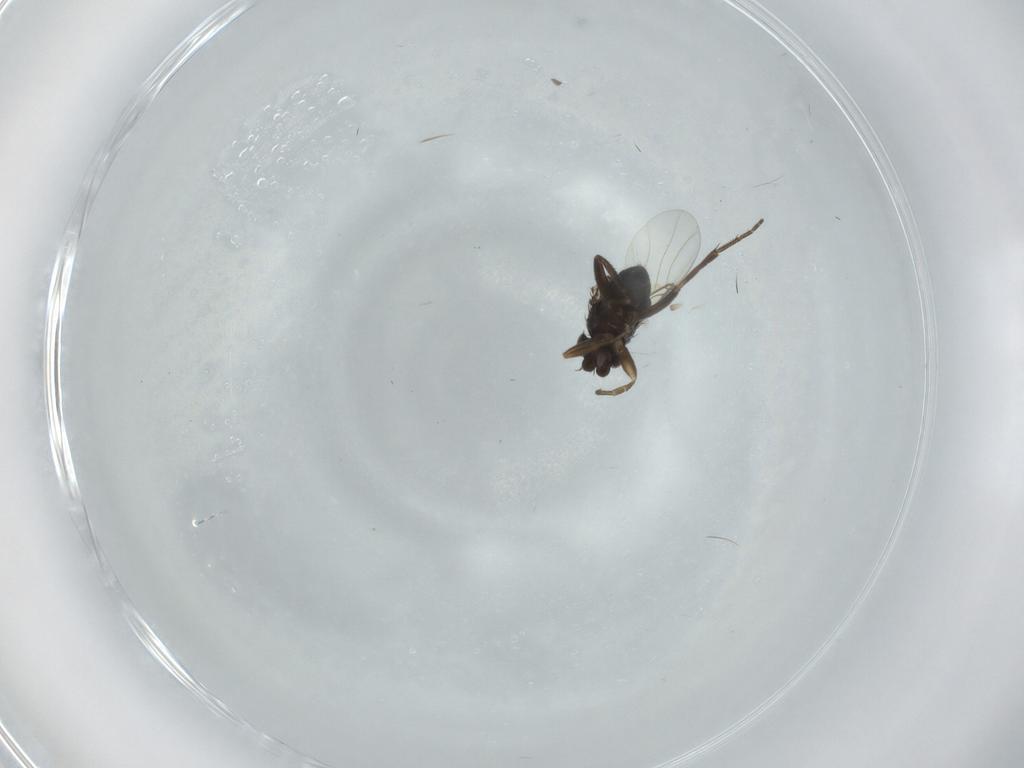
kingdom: Animalia
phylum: Arthropoda
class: Insecta
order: Diptera
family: Phoridae
